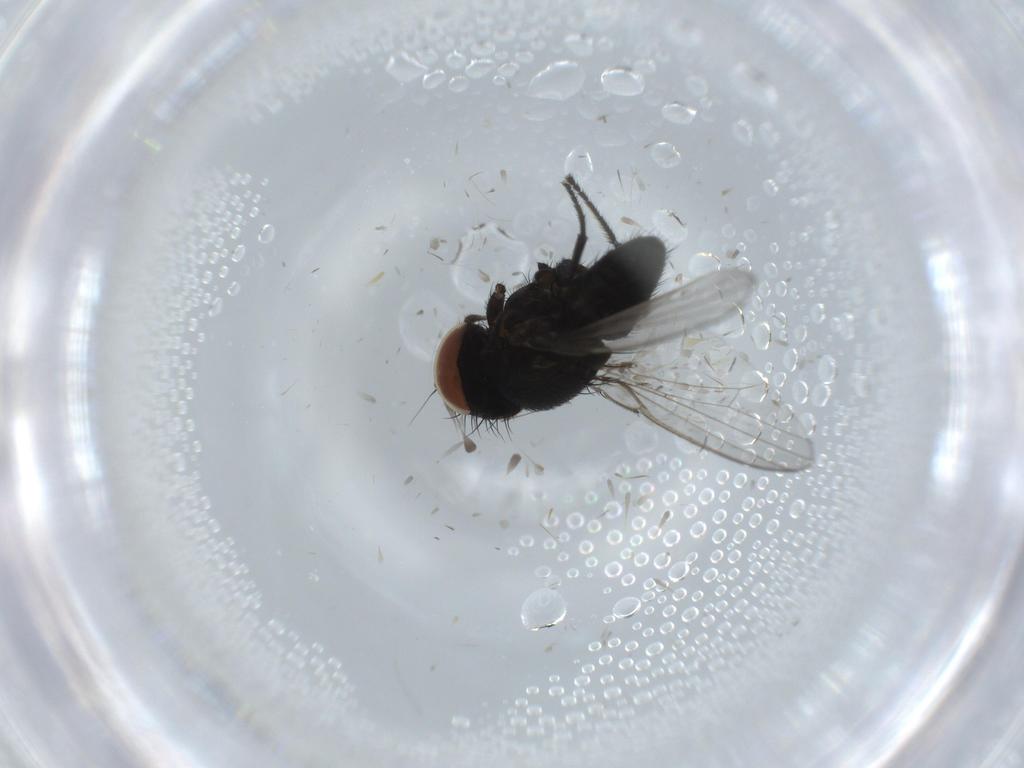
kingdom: Animalia
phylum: Arthropoda
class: Insecta
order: Diptera
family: Milichiidae
